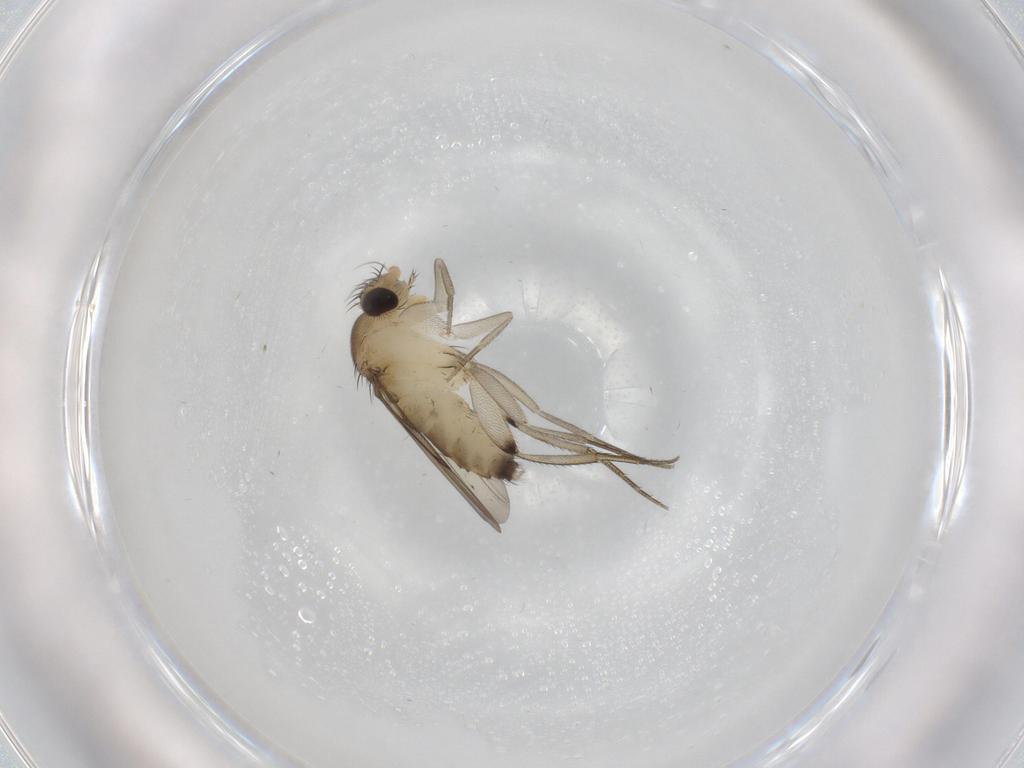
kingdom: Animalia
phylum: Arthropoda
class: Insecta
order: Diptera
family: Phoridae
